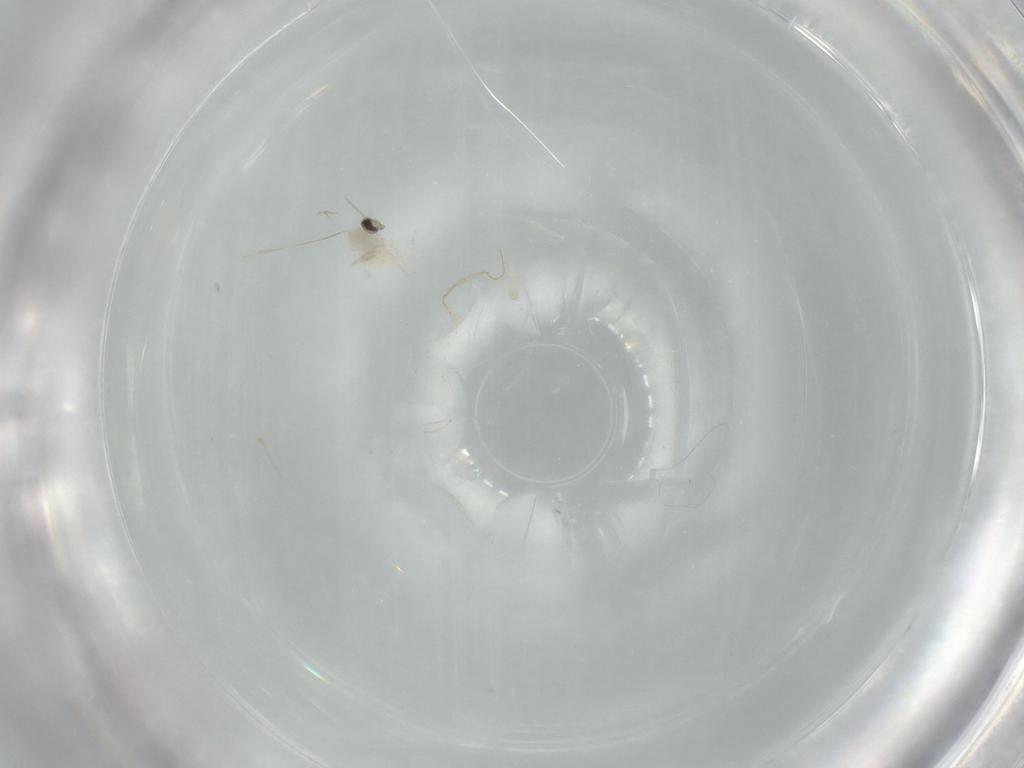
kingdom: Animalia
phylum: Arthropoda
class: Insecta
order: Diptera
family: Cecidomyiidae
